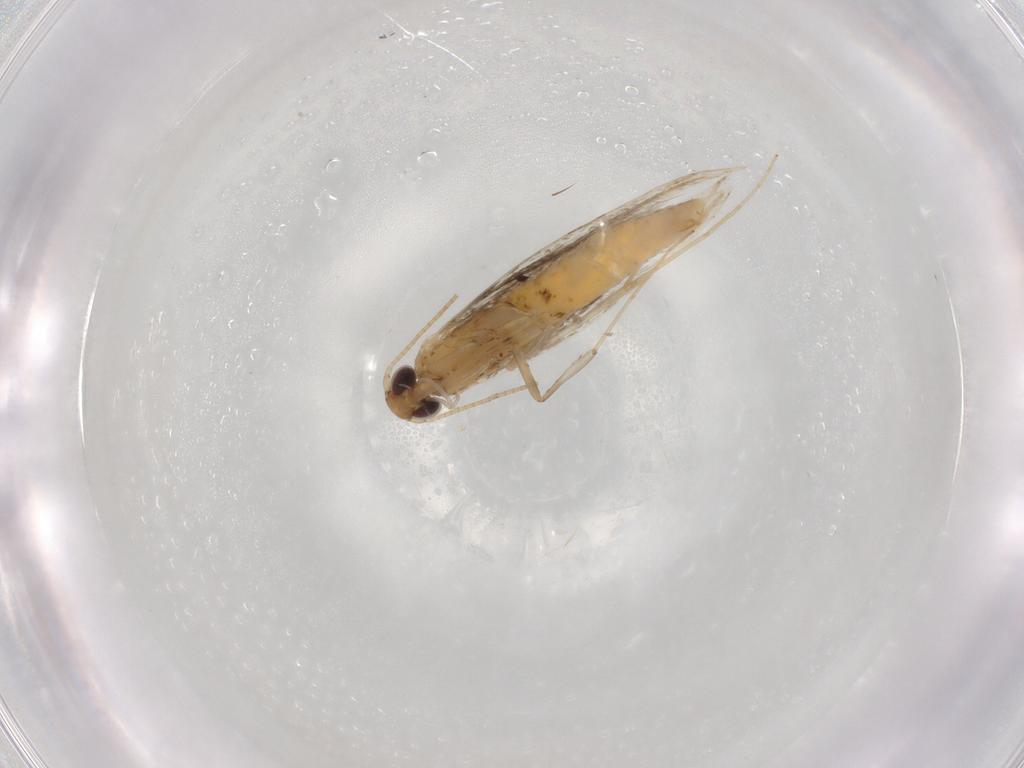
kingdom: Animalia
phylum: Arthropoda
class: Insecta
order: Lepidoptera
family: Gracillariidae
